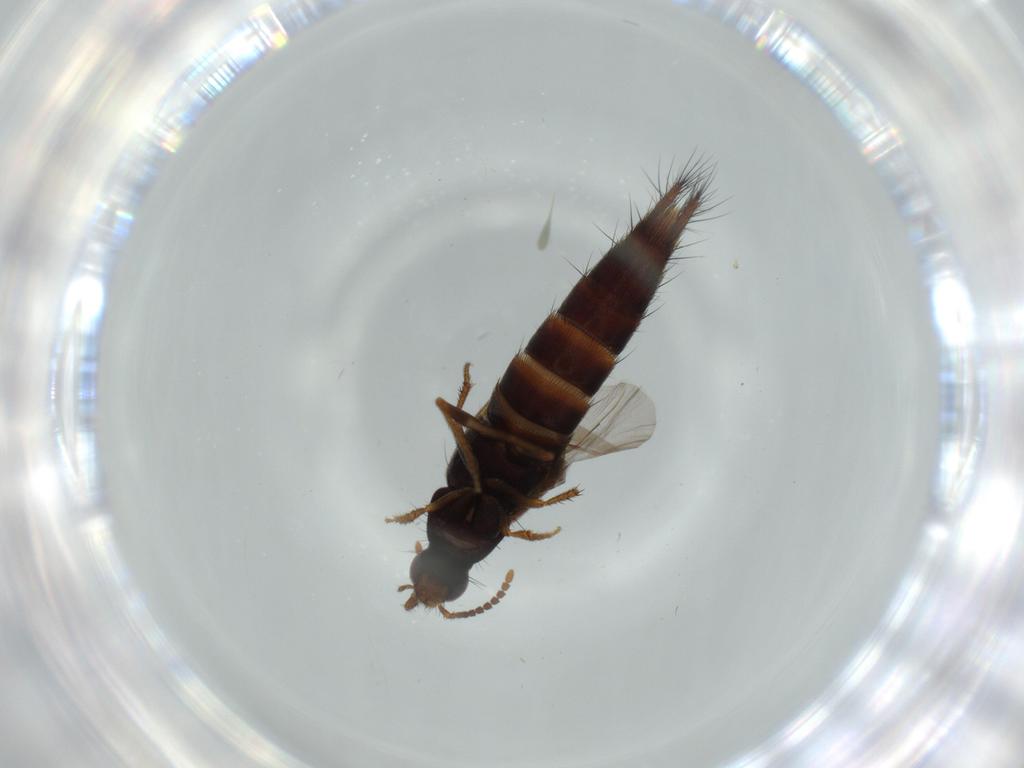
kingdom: Animalia
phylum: Arthropoda
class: Insecta
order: Coleoptera
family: Staphylinidae
